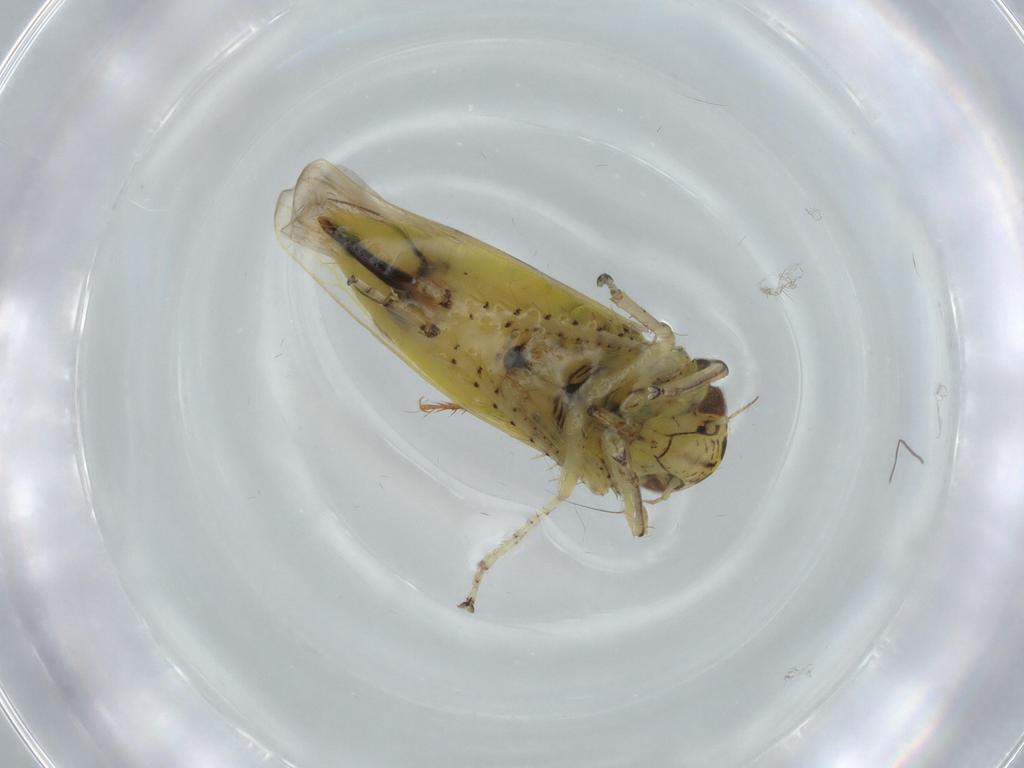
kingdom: Animalia
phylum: Arthropoda
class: Insecta
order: Hemiptera
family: Cicadellidae
